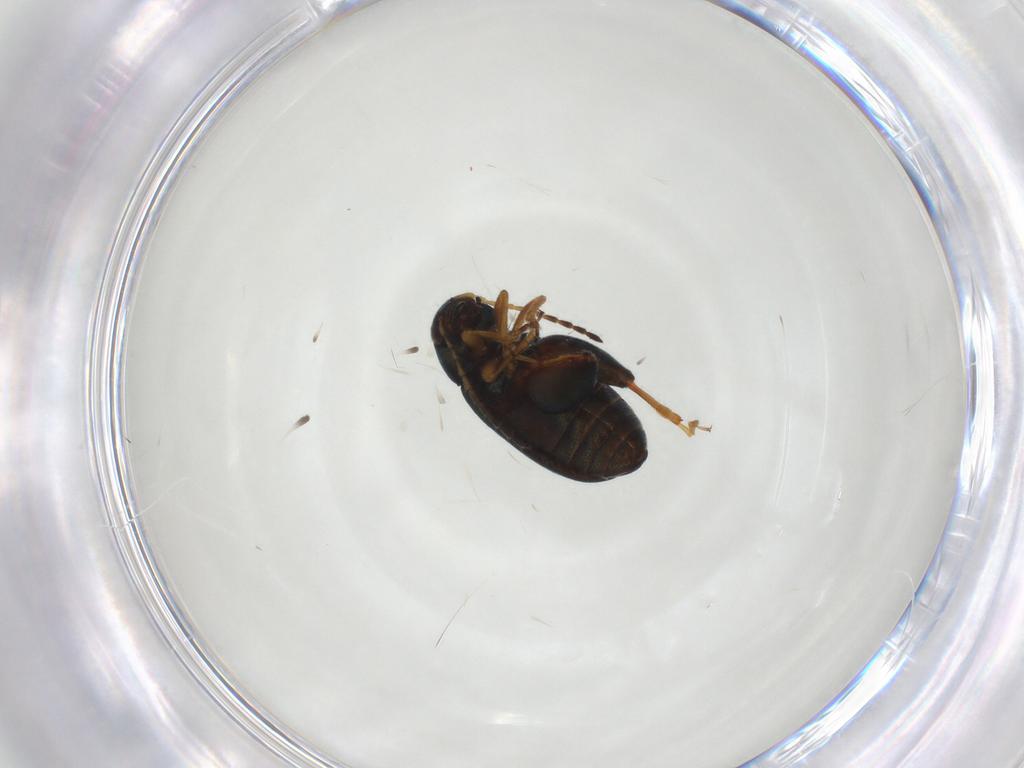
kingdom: Animalia
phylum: Arthropoda
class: Insecta
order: Coleoptera
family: Chrysomelidae
